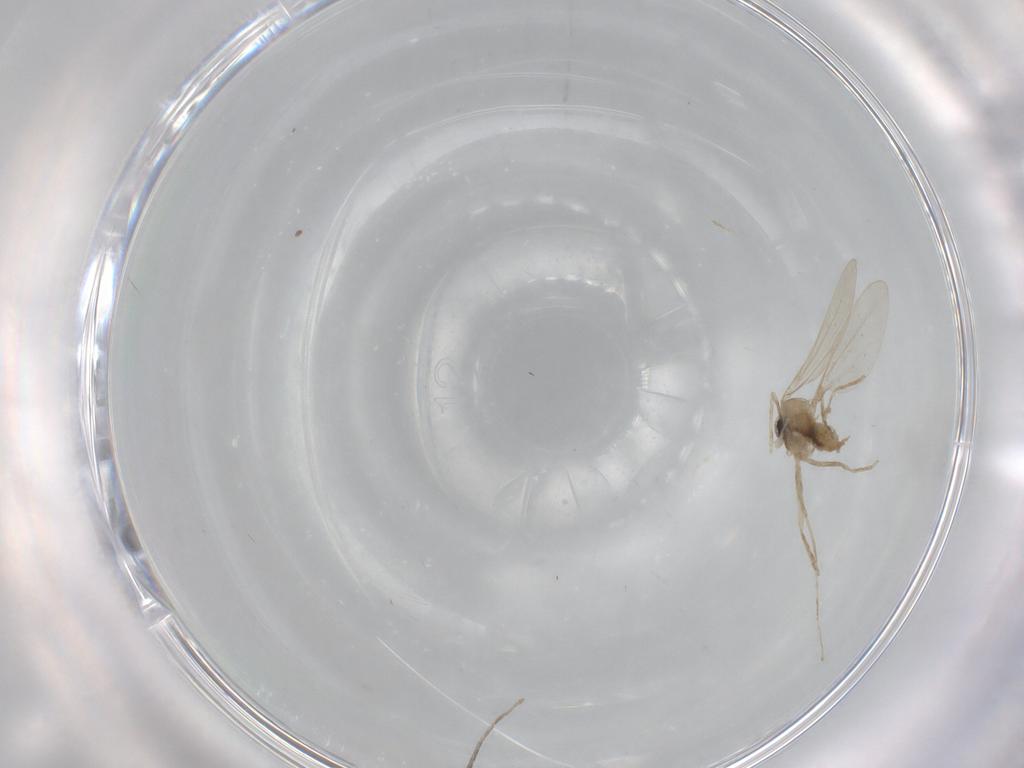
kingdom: Animalia
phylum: Arthropoda
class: Insecta
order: Diptera
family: Cecidomyiidae
